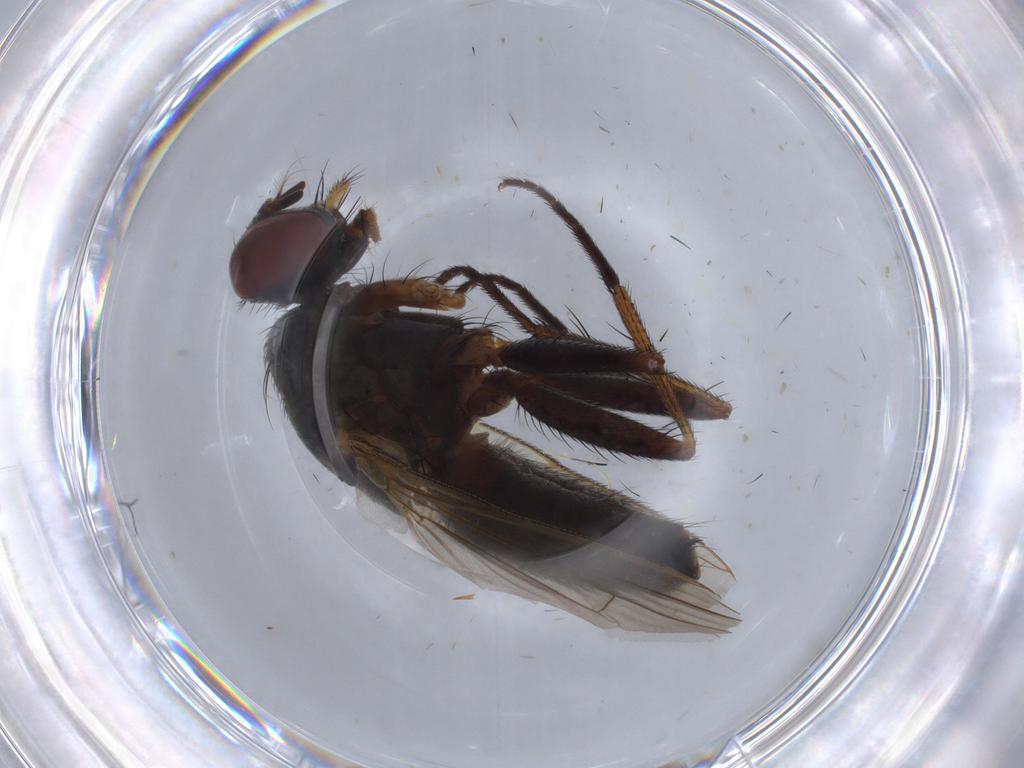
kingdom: Animalia
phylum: Arthropoda
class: Insecta
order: Diptera
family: Muscidae
